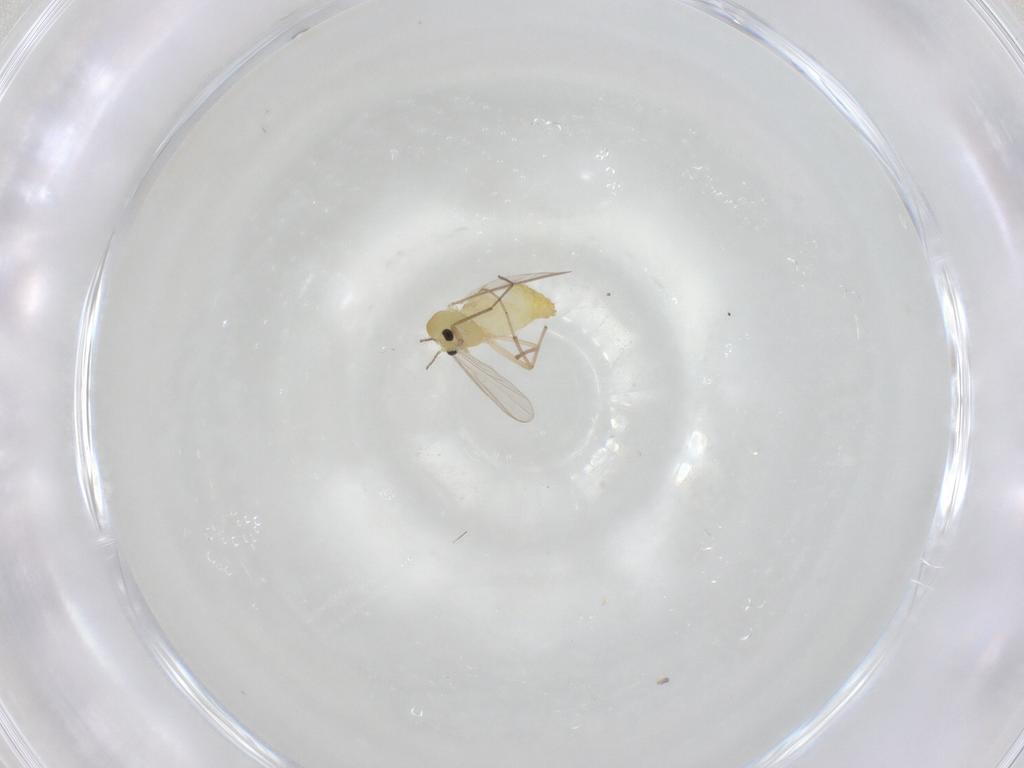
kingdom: Animalia
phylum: Arthropoda
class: Insecta
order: Diptera
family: Chironomidae
